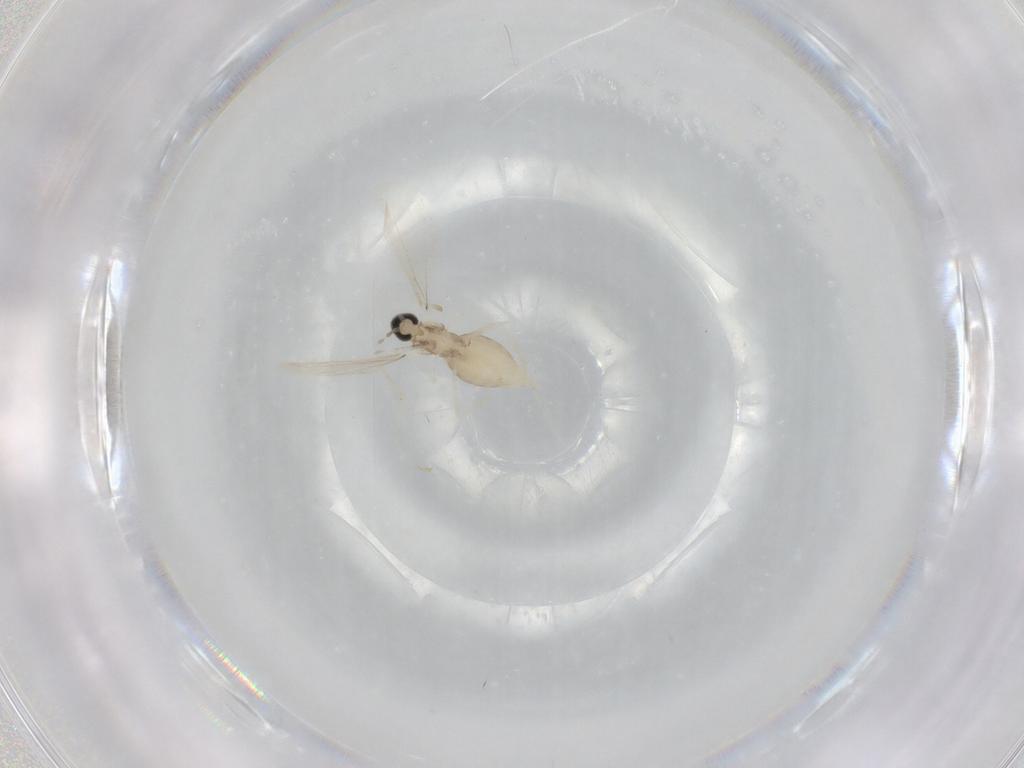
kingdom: Animalia
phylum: Arthropoda
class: Insecta
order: Diptera
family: Cecidomyiidae
